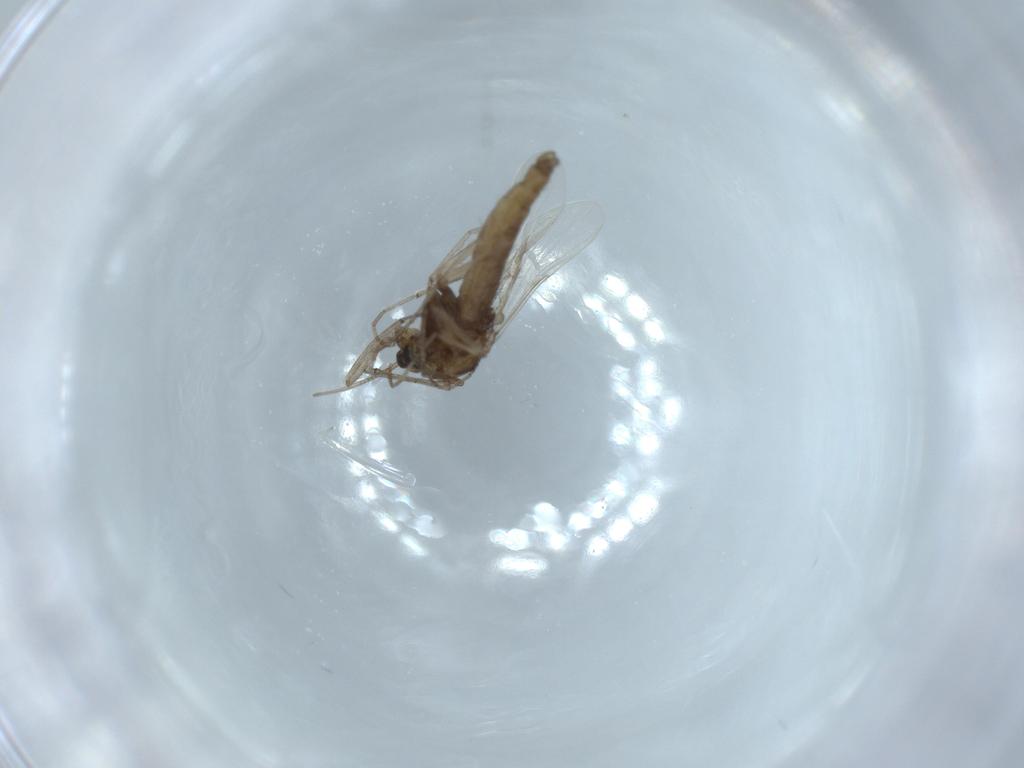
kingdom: Animalia
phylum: Arthropoda
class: Insecta
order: Diptera
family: Chironomidae
